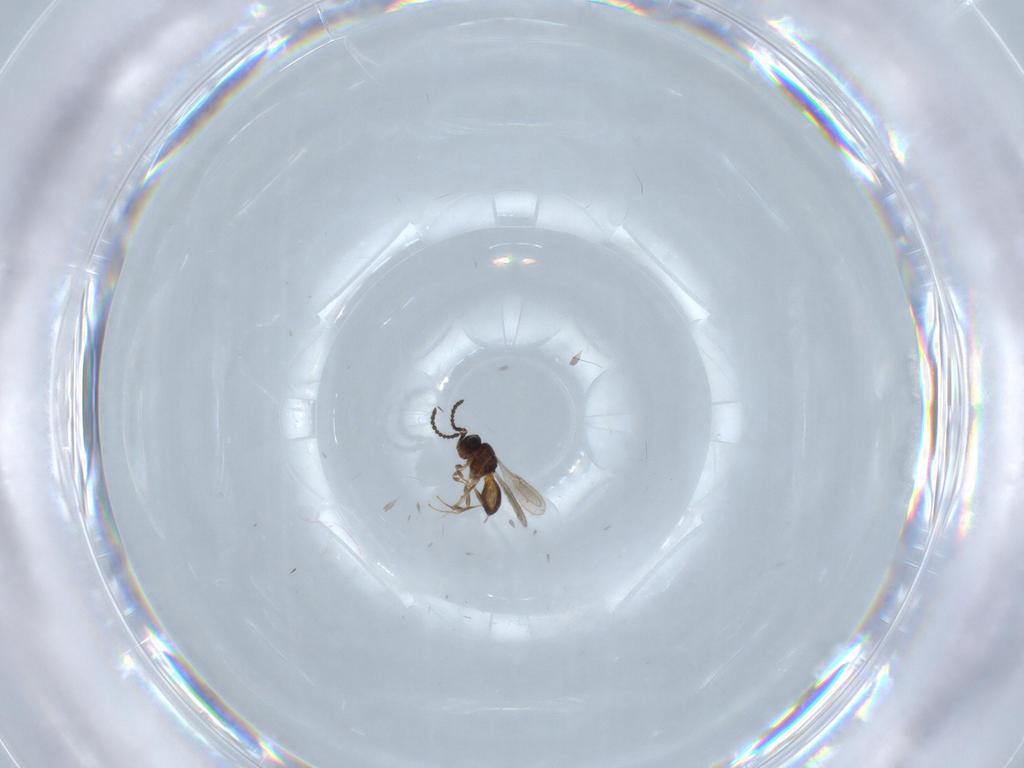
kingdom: Animalia
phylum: Arthropoda
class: Insecta
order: Hymenoptera
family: Scelionidae
